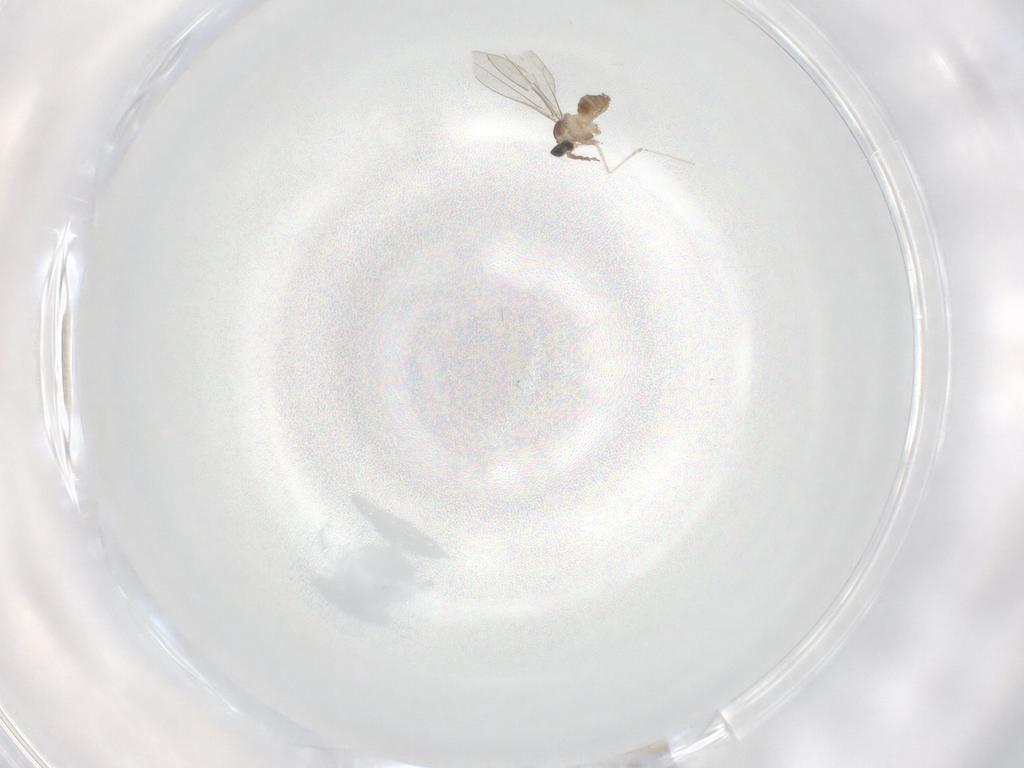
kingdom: Animalia
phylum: Arthropoda
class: Insecta
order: Diptera
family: Cecidomyiidae
